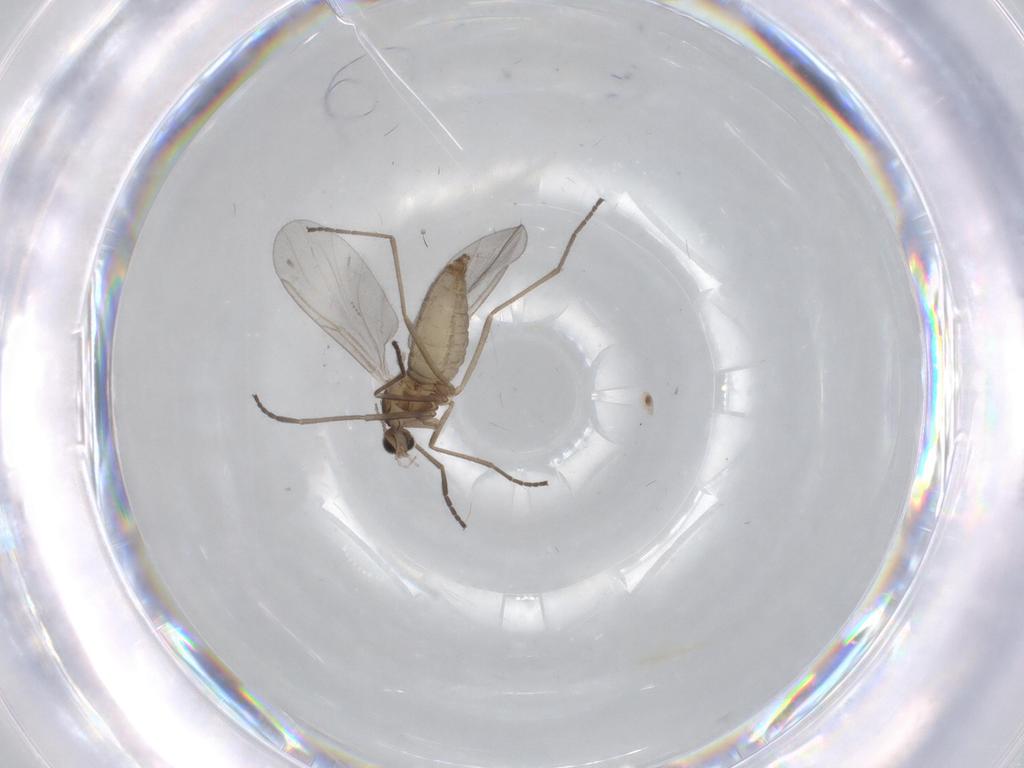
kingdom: Animalia
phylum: Arthropoda
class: Insecta
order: Diptera
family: Cecidomyiidae
